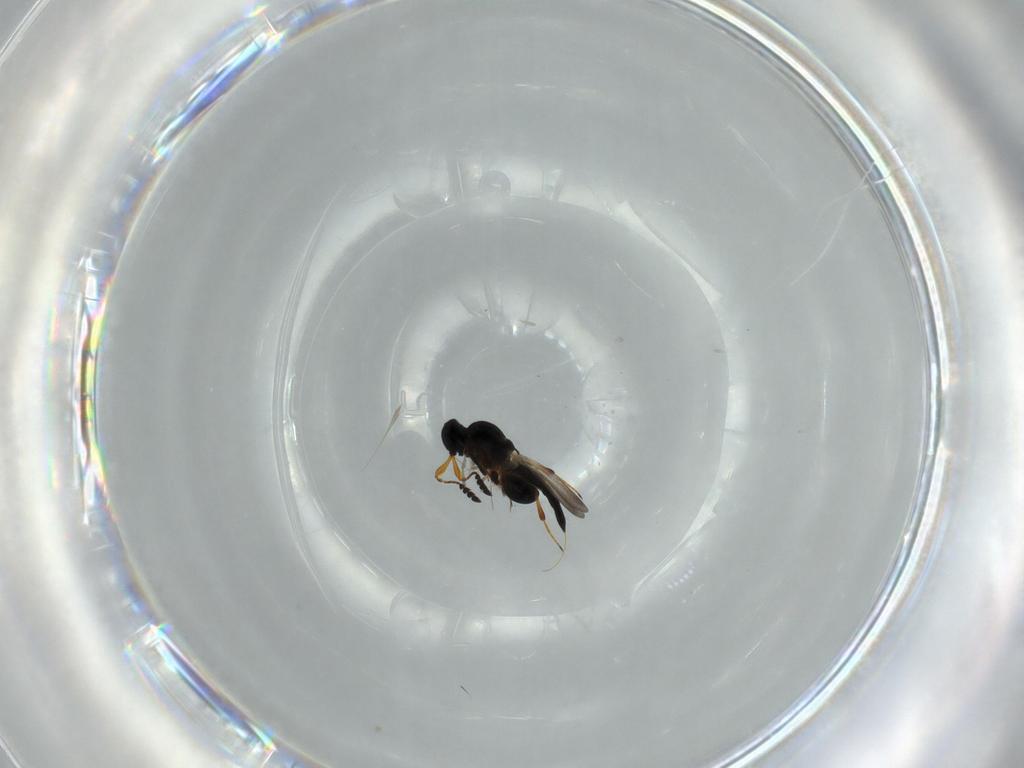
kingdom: Animalia
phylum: Arthropoda
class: Insecta
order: Hymenoptera
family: Platygastridae
